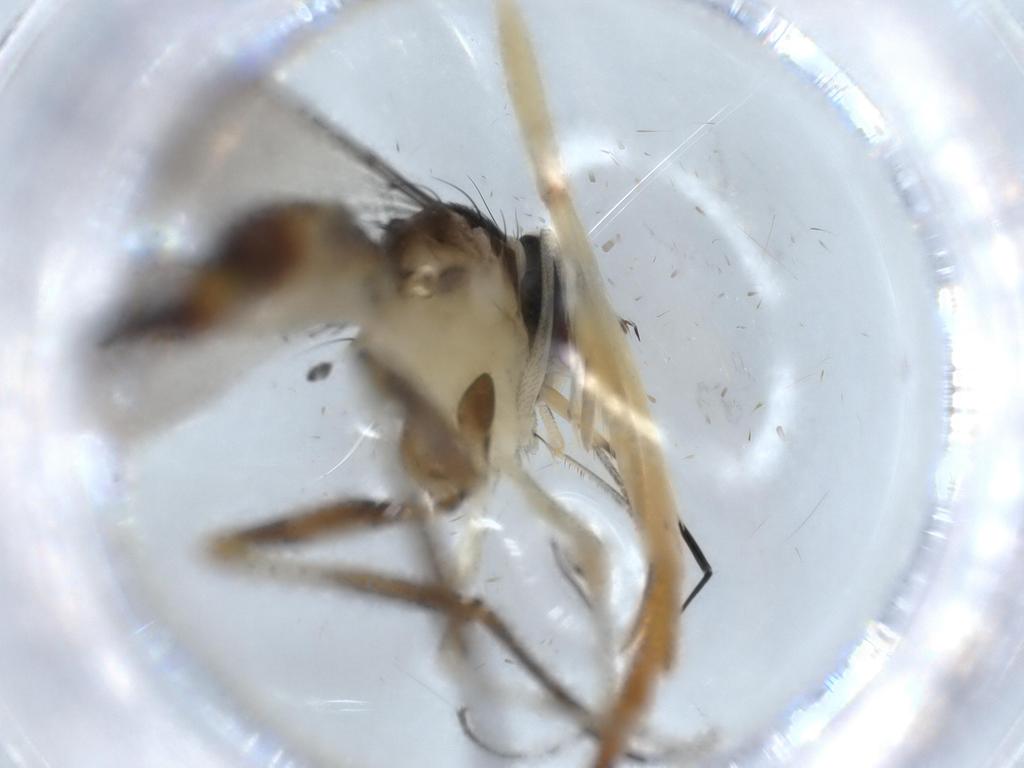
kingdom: Animalia
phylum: Arthropoda
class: Insecta
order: Diptera
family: Conopidae
